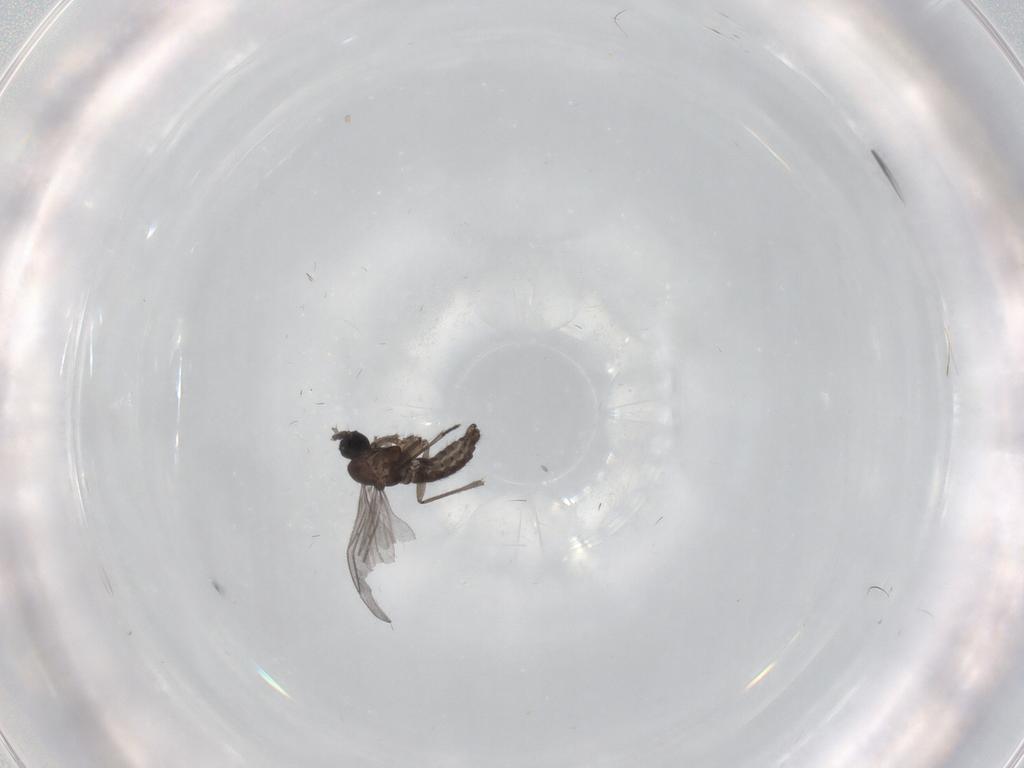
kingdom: Animalia
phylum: Arthropoda
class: Insecta
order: Diptera
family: Sciaridae
